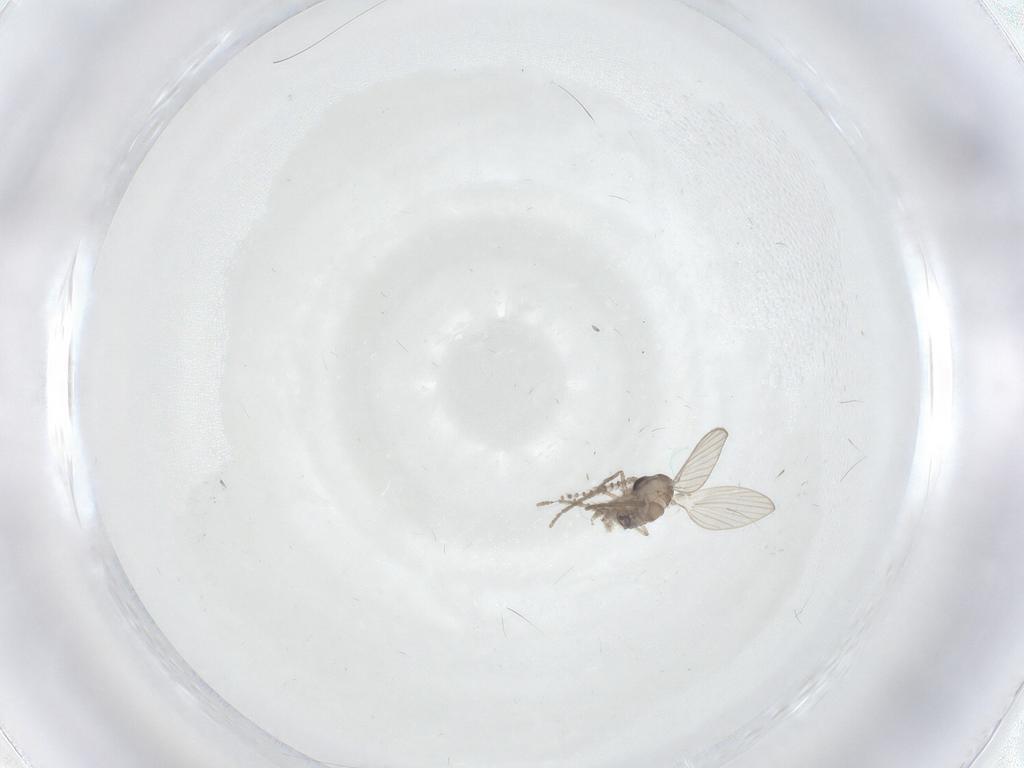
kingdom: Animalia
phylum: Arthropoda
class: Insecta
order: Diptera
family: Psychodidae
